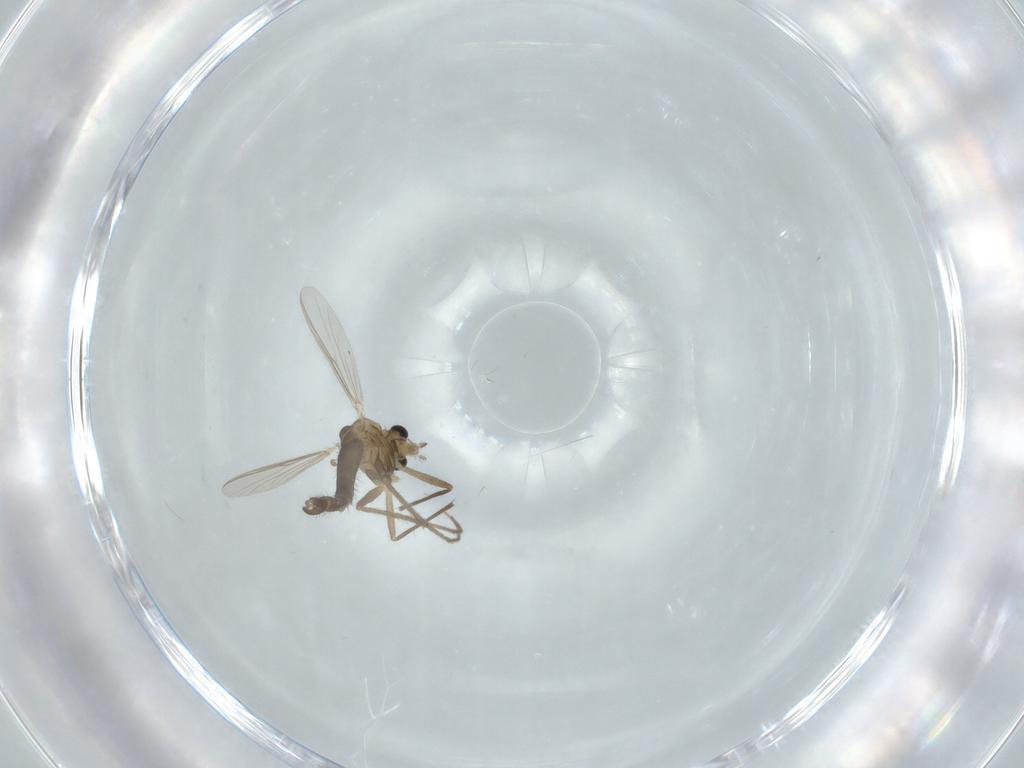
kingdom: Animalia
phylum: Arthropoda
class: Insecta
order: Diptera
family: Chironomidae
